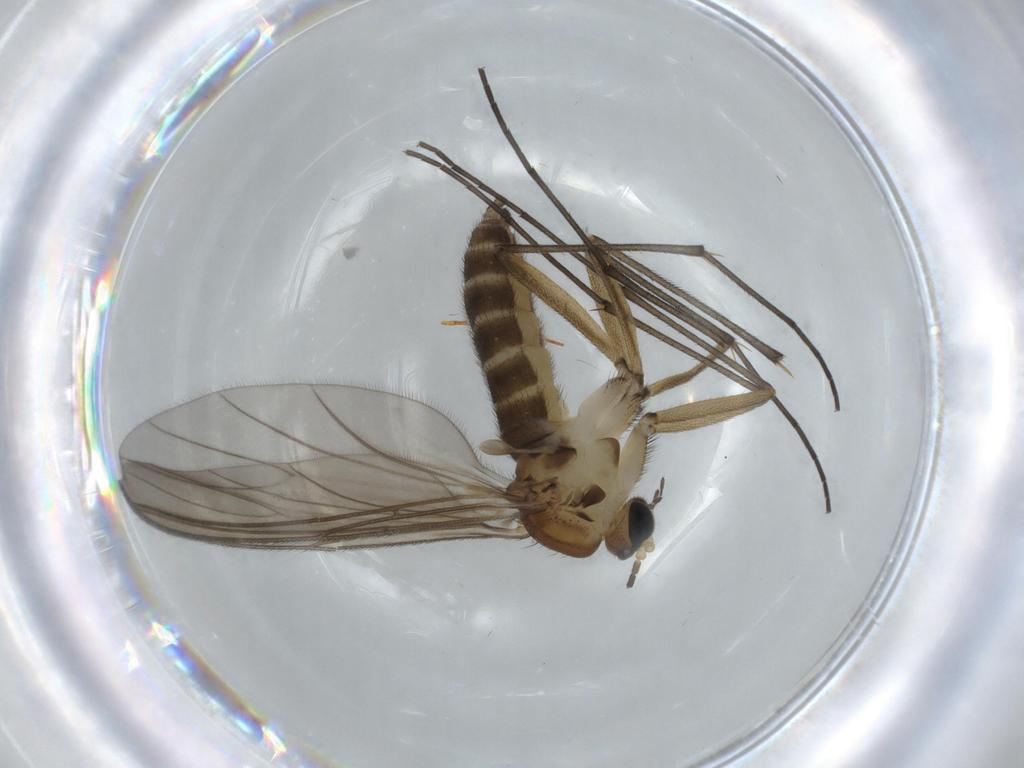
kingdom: Animalia
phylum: Arthropoda
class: Insecta
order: Diptera
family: Sciaridae
